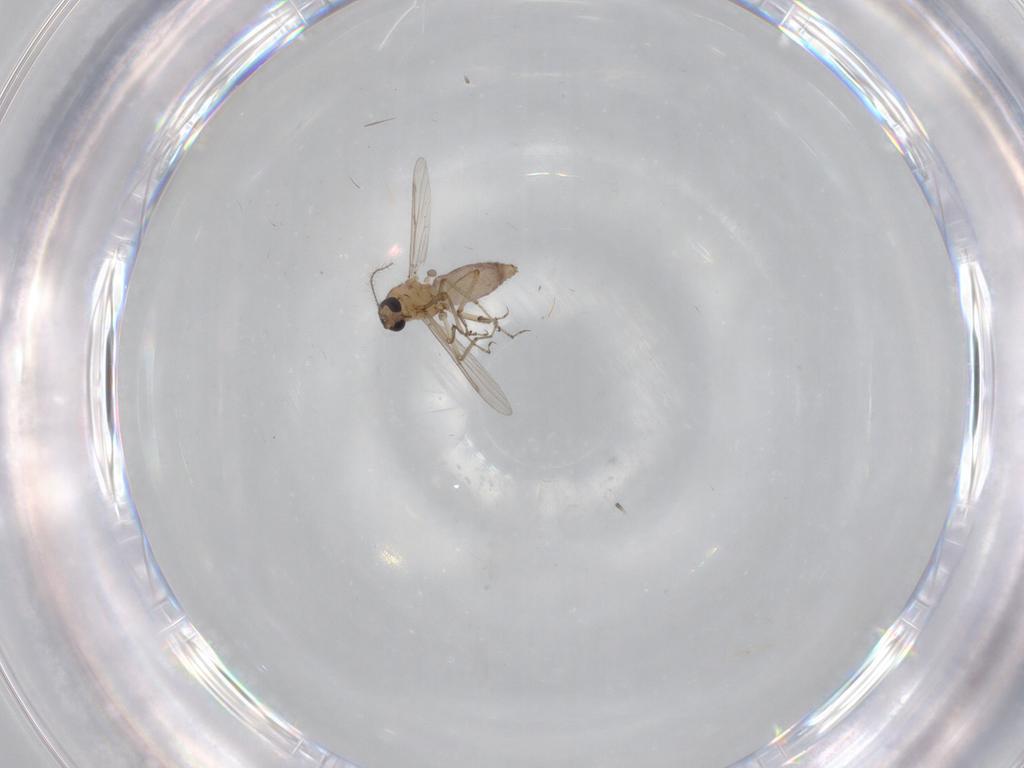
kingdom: Animalia
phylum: Arthropoda
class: Insecta
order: Diptera
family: Ceratopogonidae
